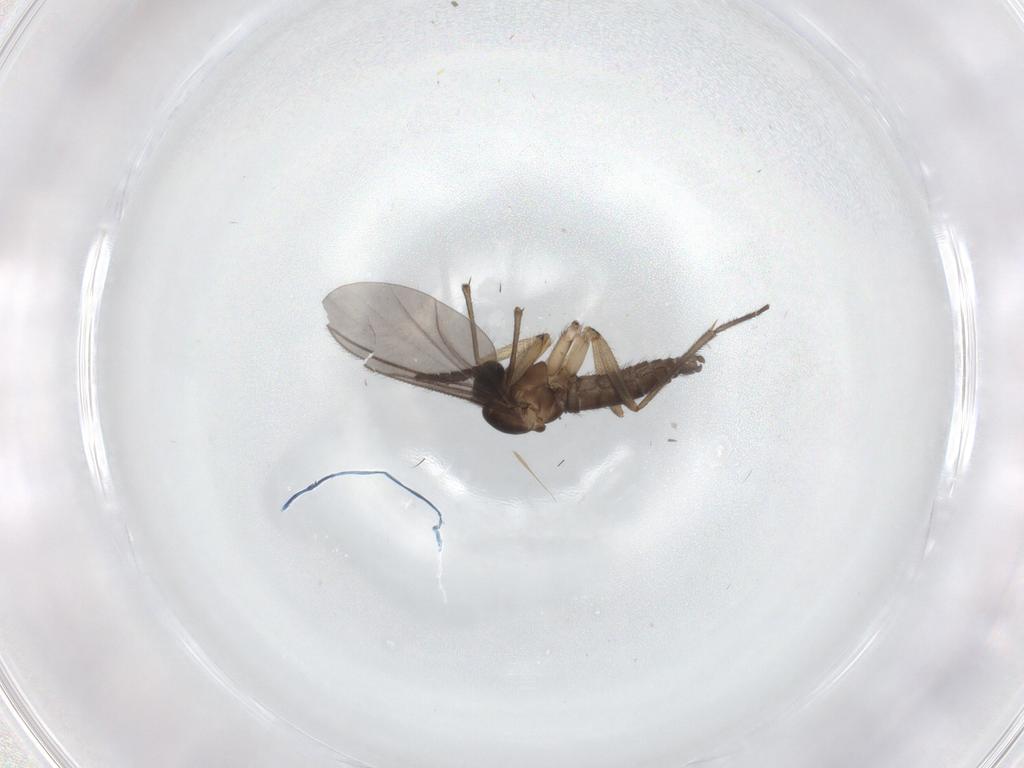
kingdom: Animalia
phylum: Arthropoda
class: Insecta
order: Diptera
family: Sciaridae
